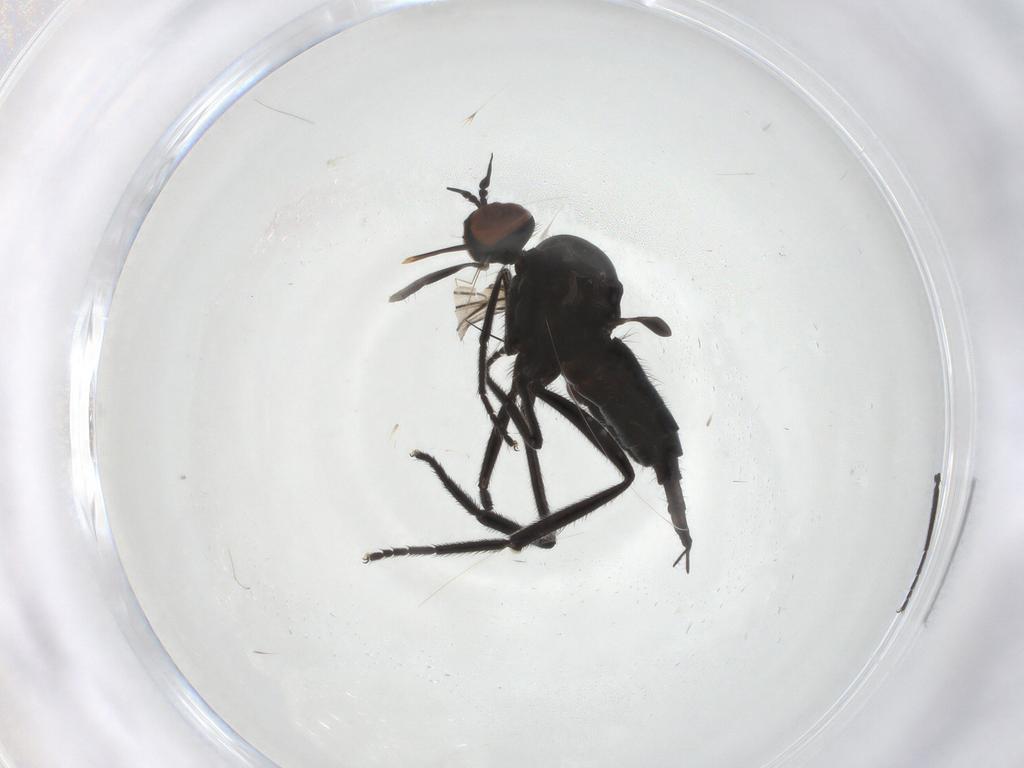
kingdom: Animalia
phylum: Arthropoda
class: Insecta
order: Diptera
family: Empididae
